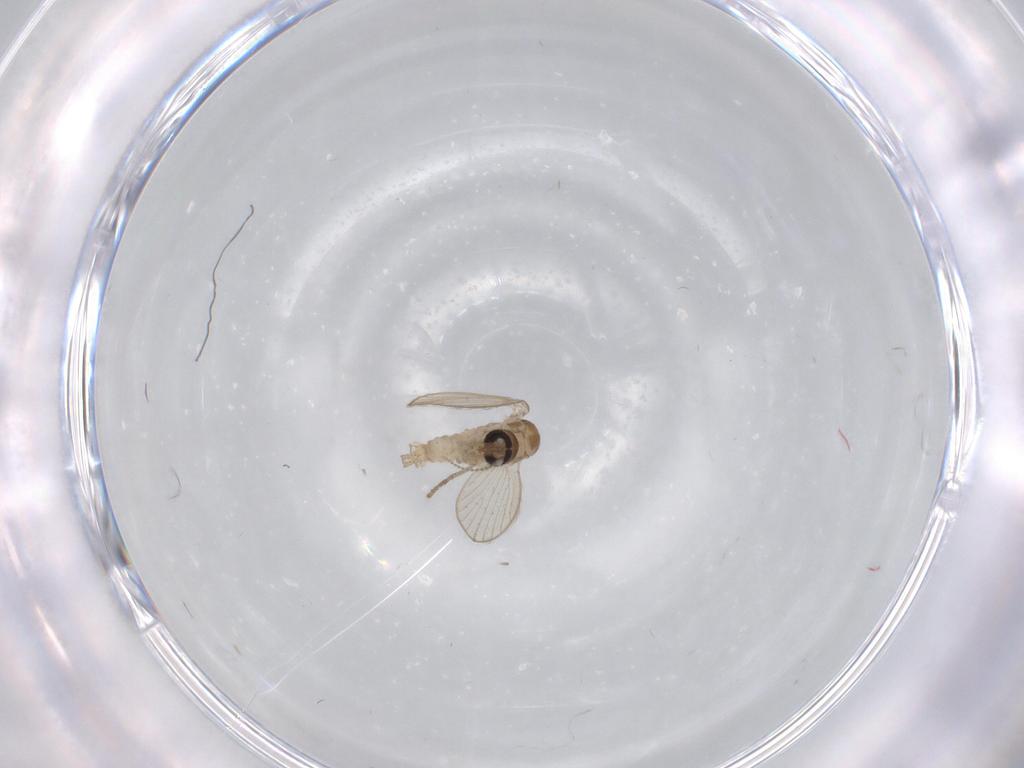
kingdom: Animalia
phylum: Arthropoda
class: Insecta
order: Diptera
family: Psychodidae
